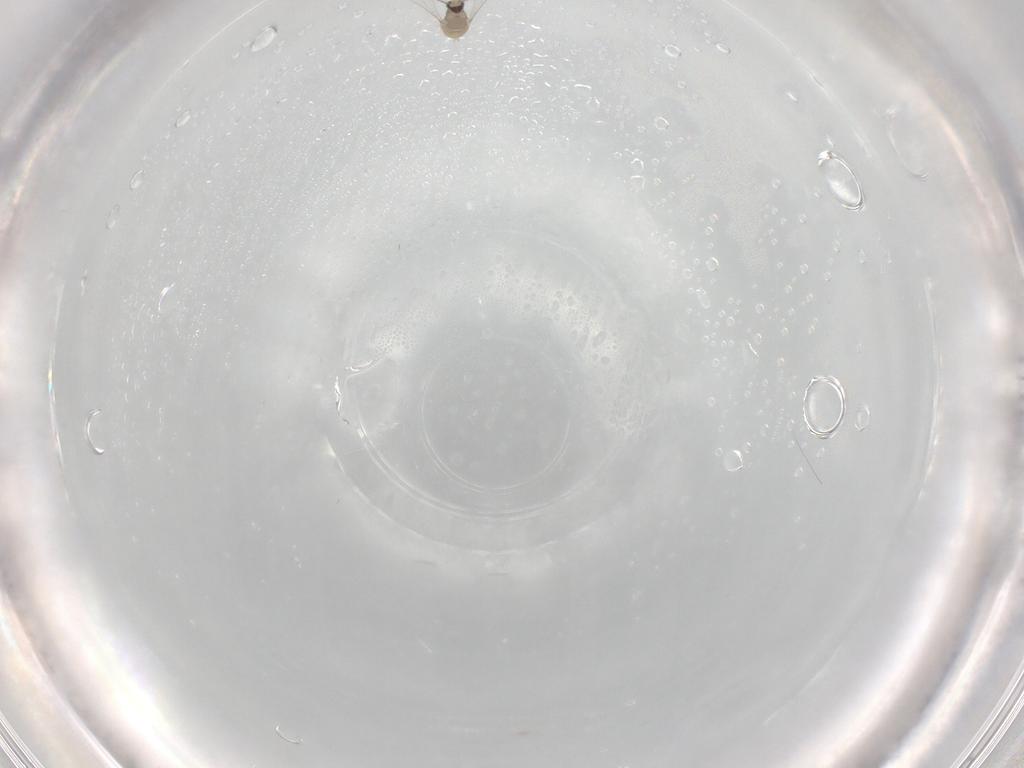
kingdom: Animalia
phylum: Arthropoda
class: Insecta
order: Diptera
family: Cecidomyiidae
